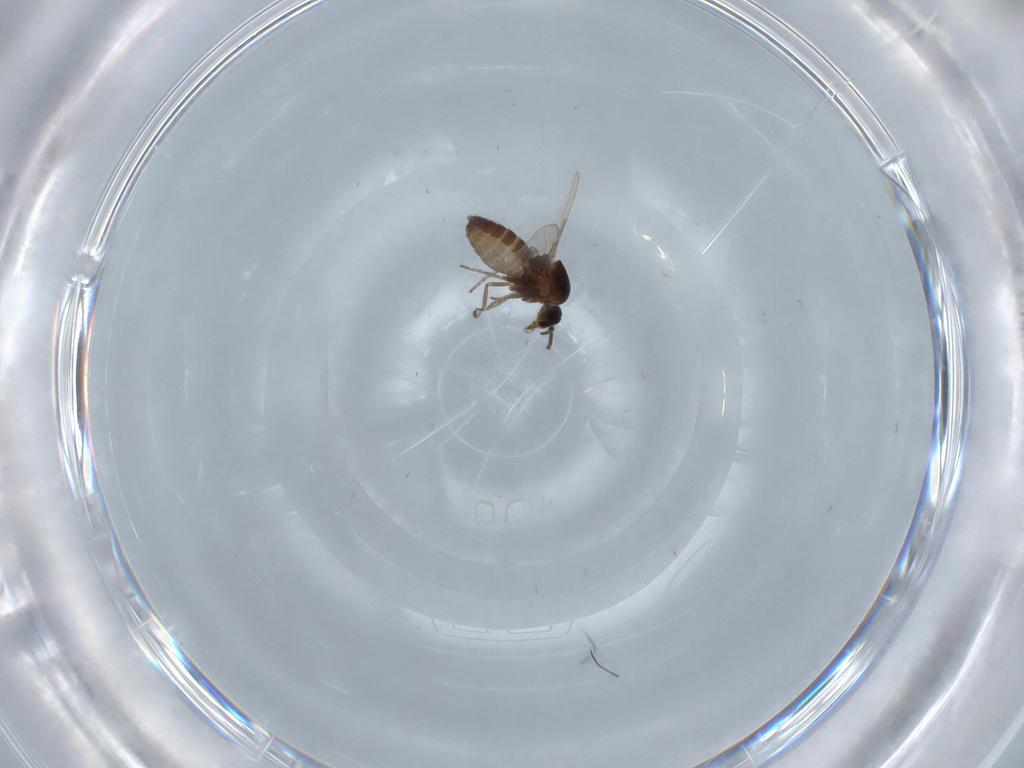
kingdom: Animalia
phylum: Arthropoda
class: Insecta
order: Diptera
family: Ceratopogonidae
